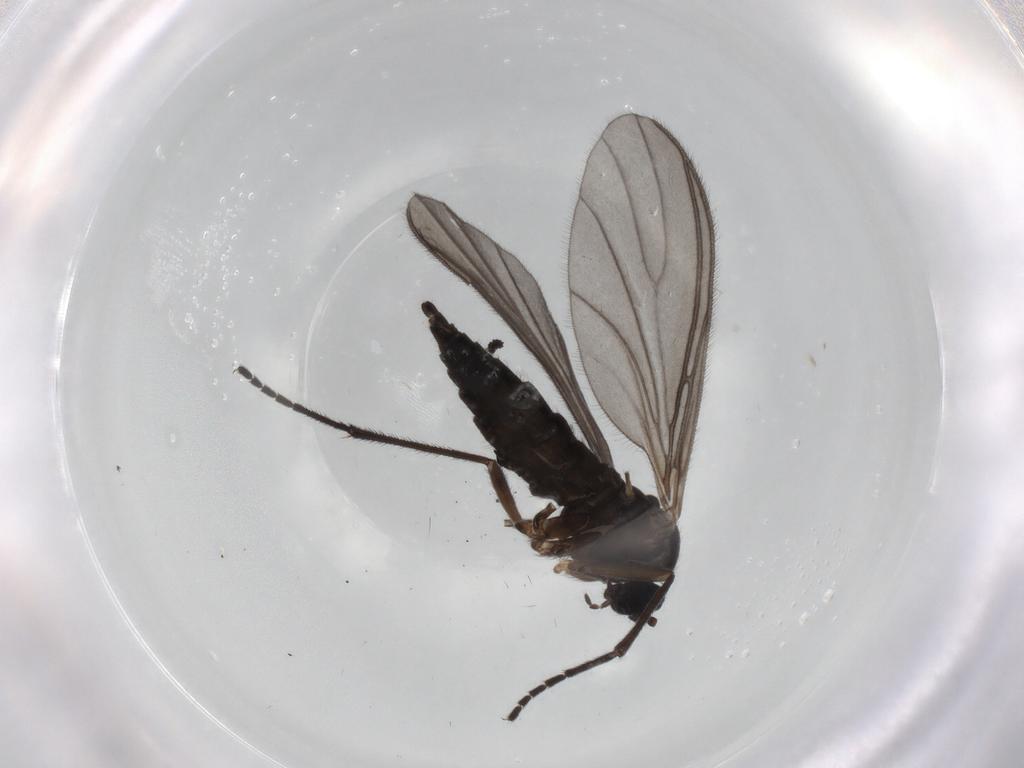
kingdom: Animalia
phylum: Arthropoda
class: Insecta
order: Diptera
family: Sciaridae
